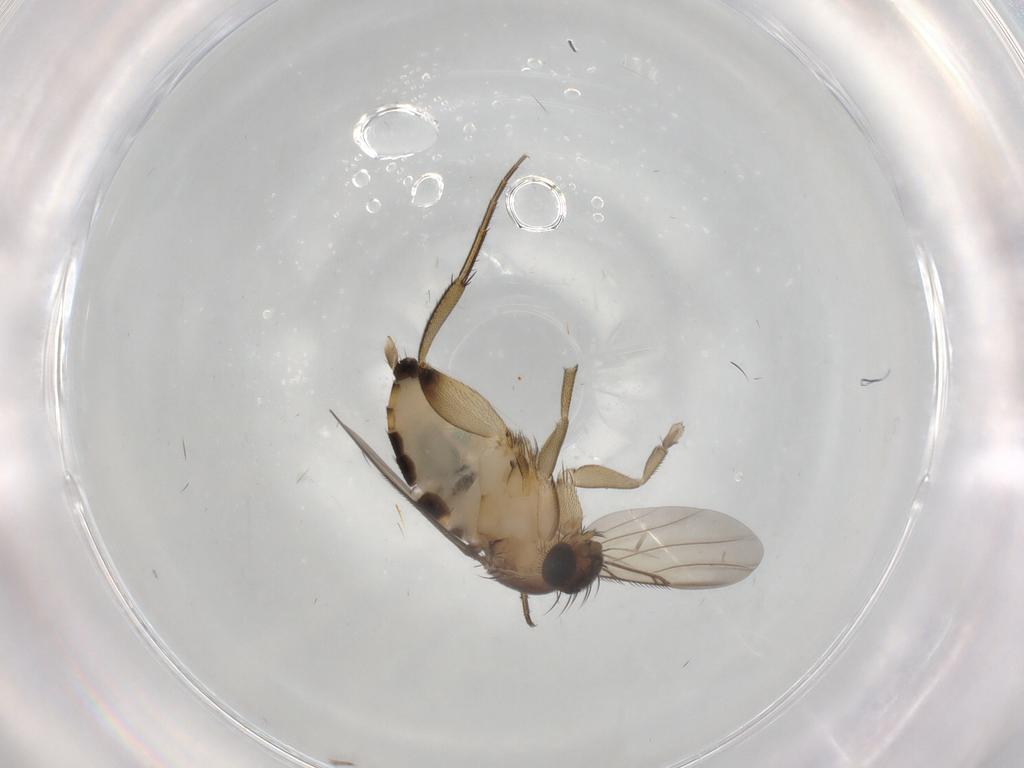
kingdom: Animalia
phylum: Arthropoda
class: Insecta
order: Diptera
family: Phoridae
